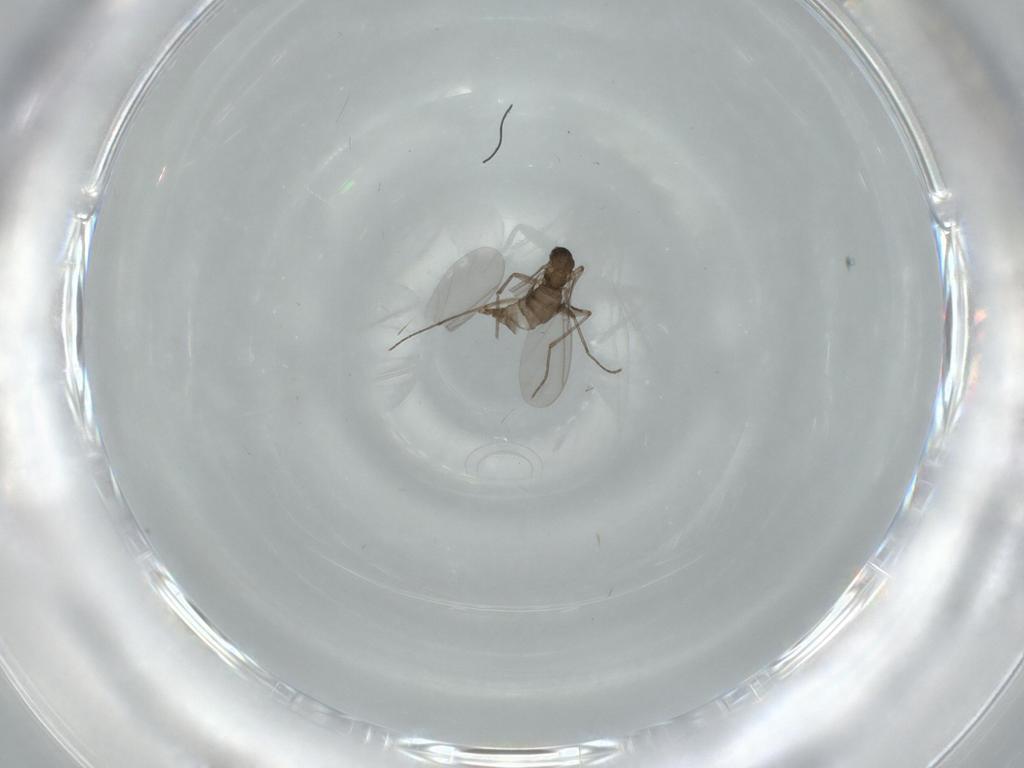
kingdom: Animalia
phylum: Arthropoda
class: Insecta
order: Diptera
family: Sciaridae
